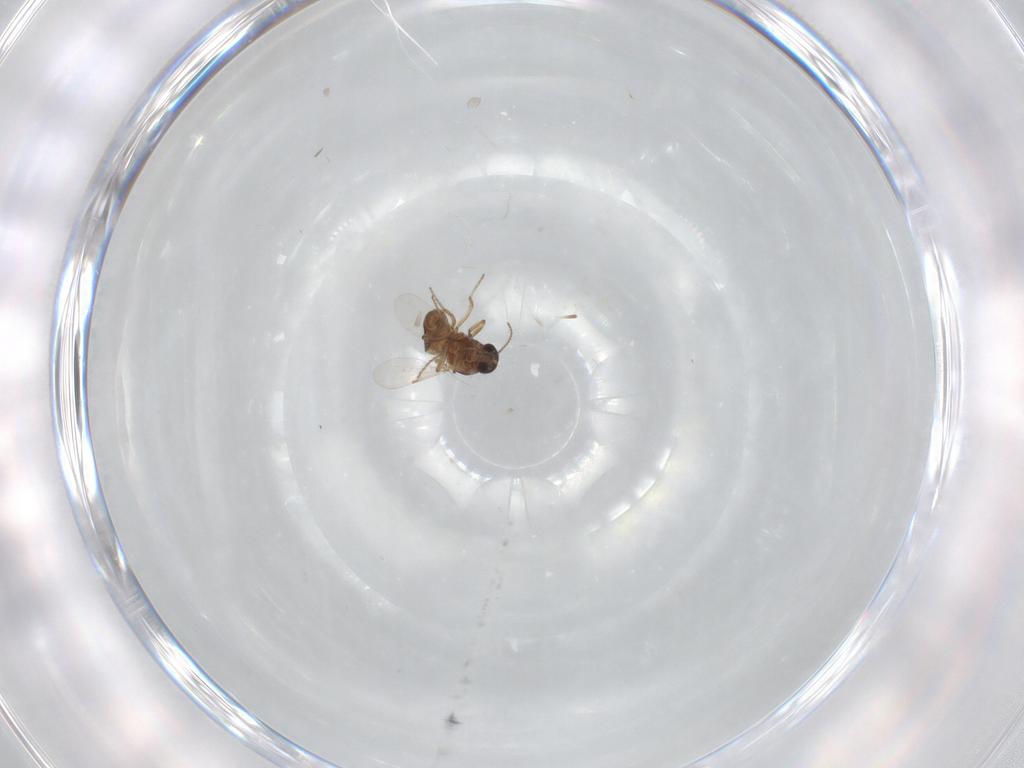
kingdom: Animalia
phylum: Arthropoda
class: Insecta
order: Diptera
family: Ceratopogonidae
